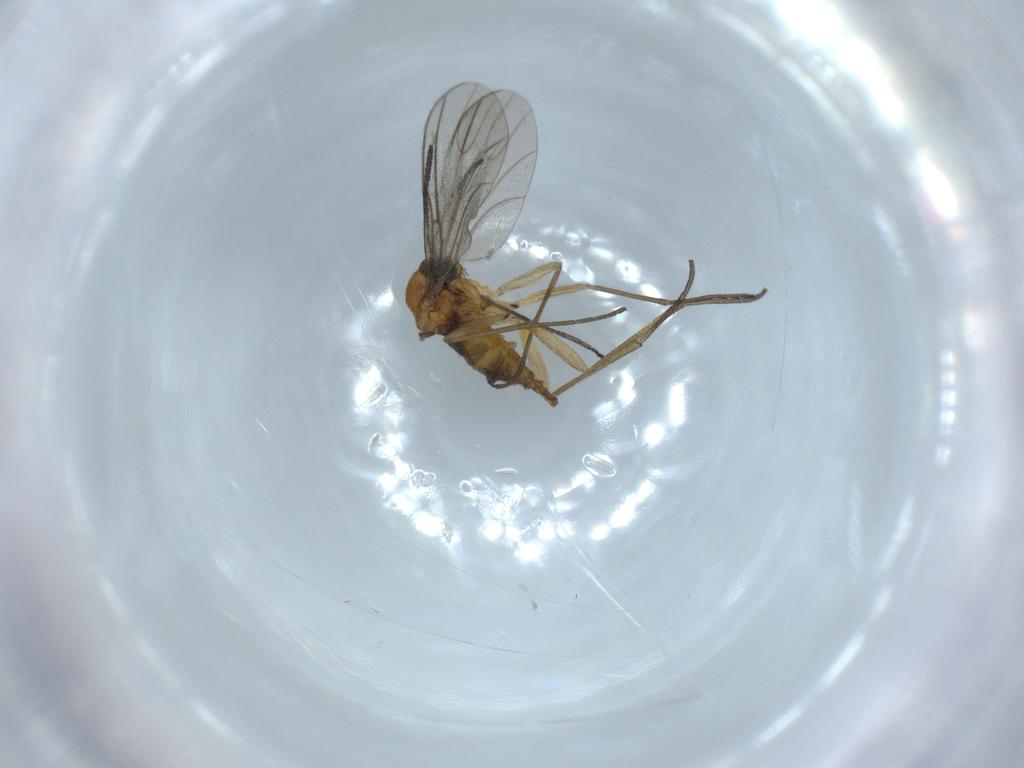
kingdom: Animalia
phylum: Arthropoda
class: Insecta
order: Diptera
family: Sciaridae
